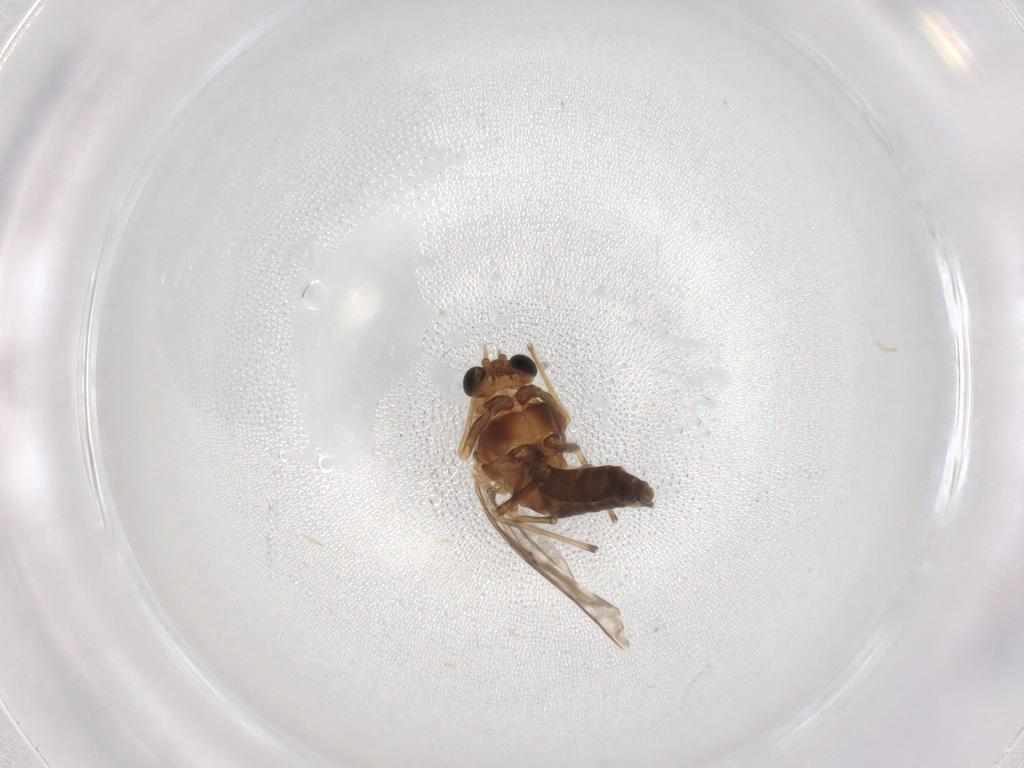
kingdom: Animalia
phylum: Arthropoda
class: Insecta
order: Diptera
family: Chironomidae
